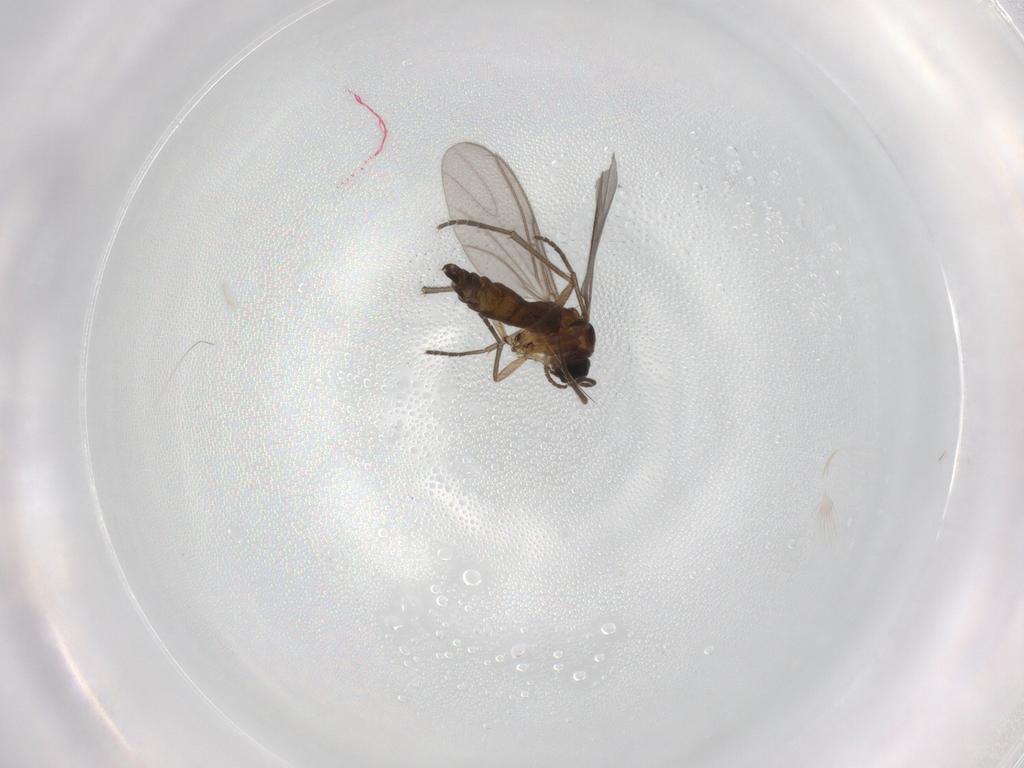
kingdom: Animalia
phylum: Arthropoda
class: Insecta
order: Diptera
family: Sciaridae
